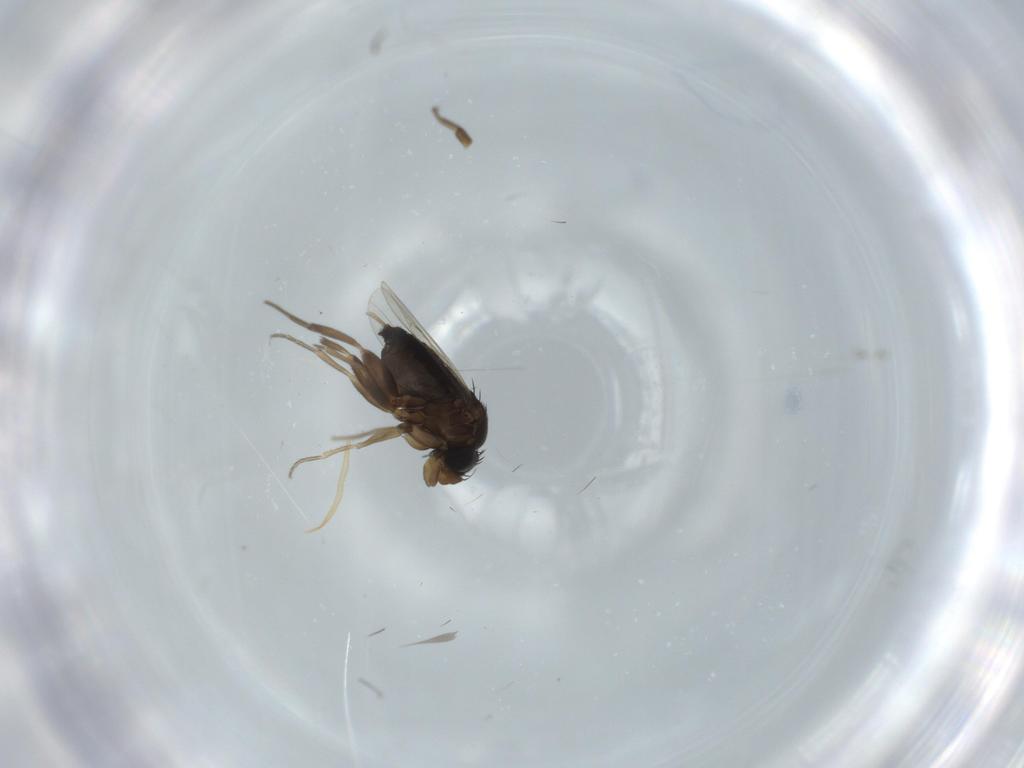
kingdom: Animalia
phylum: Arthropoda
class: Insecta
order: Diptera
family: Phoridae
